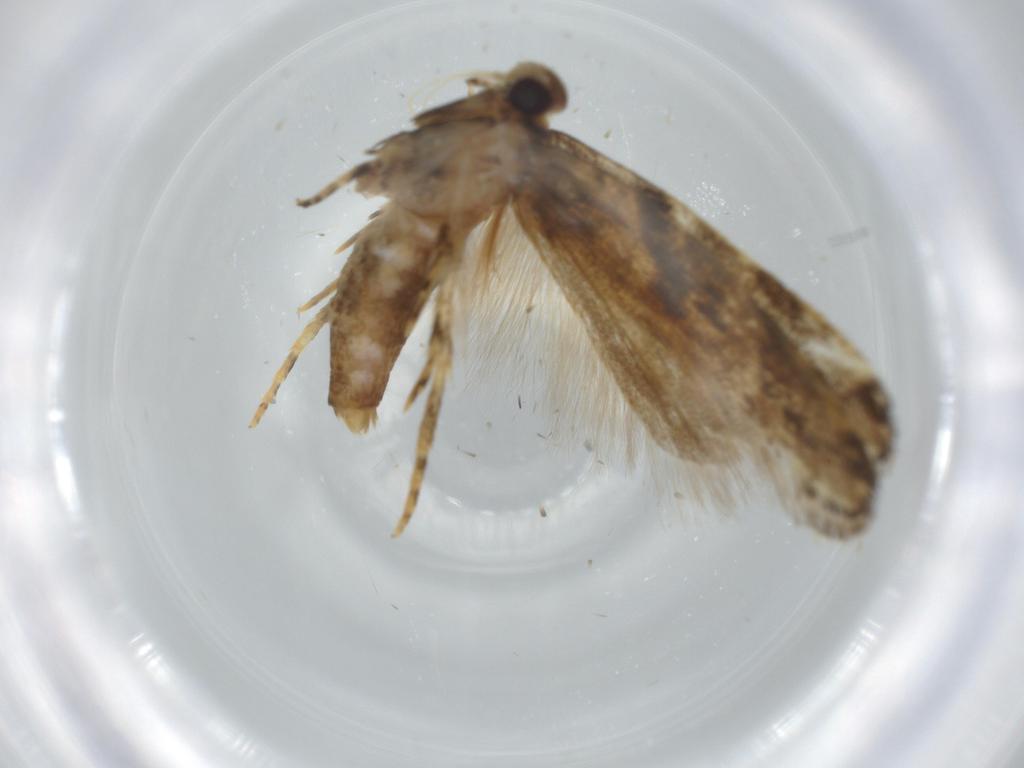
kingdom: Animalia
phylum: Arthropoda
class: Insecta
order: Lepidoptera
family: Tineidae
